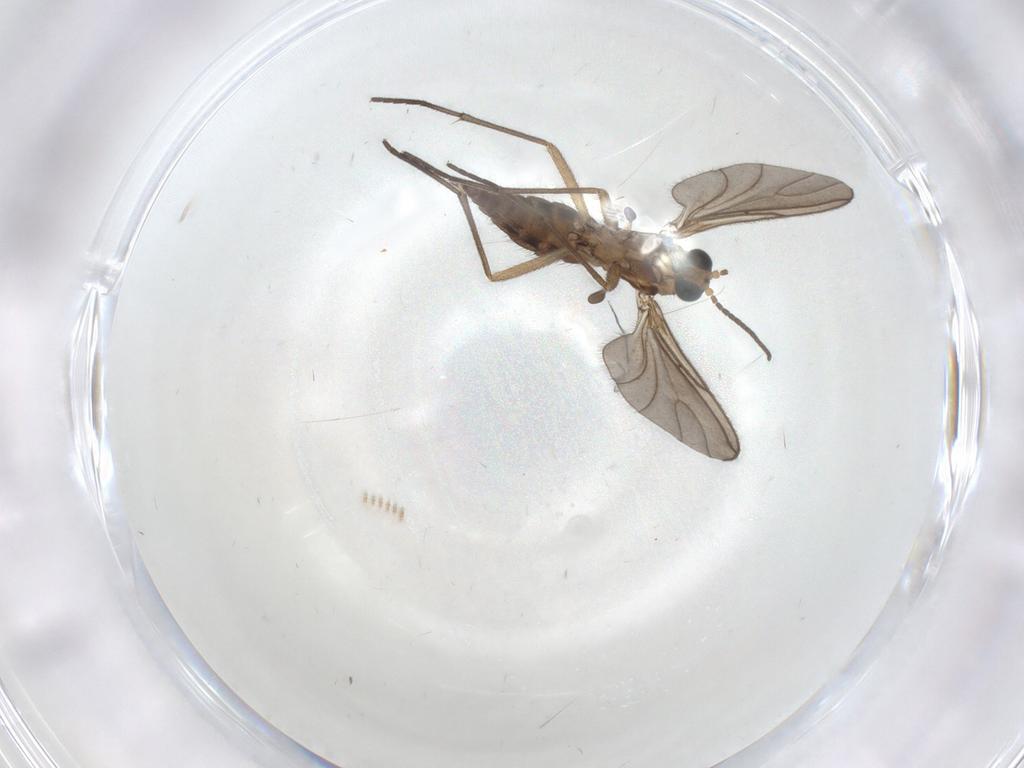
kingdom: Animalia
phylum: Arthropoda
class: Insecta
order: Diptera
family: Sciaridae
